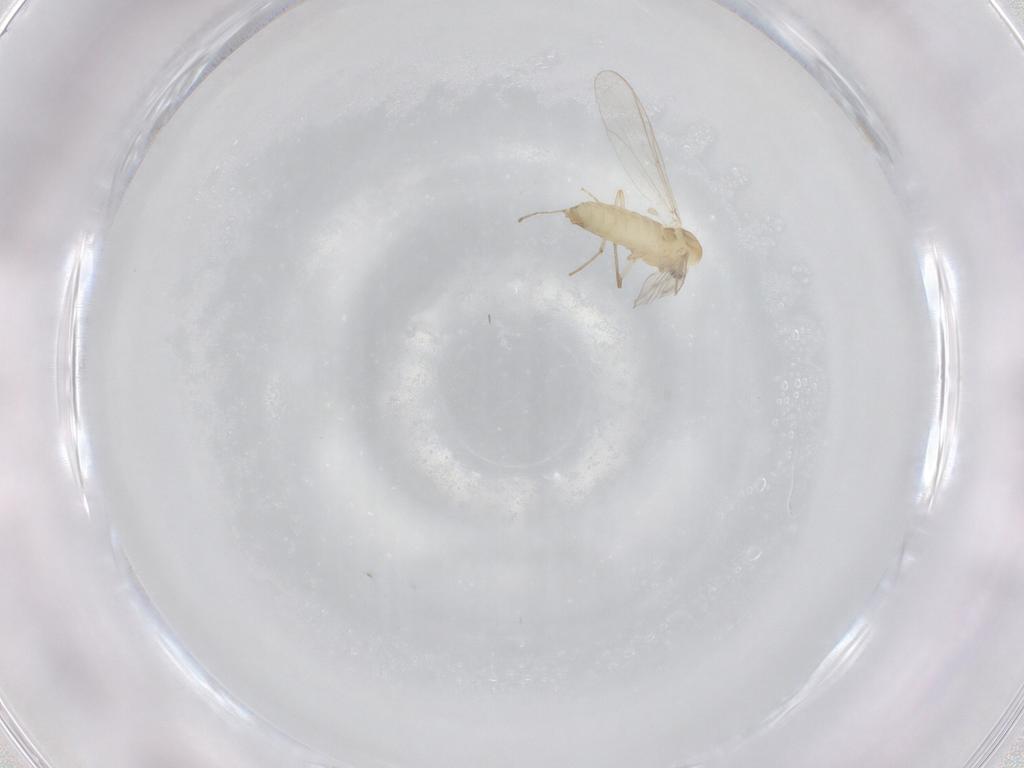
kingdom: Animalia
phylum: Arthropoda
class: Insecta
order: Diptera
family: Chironomidae
